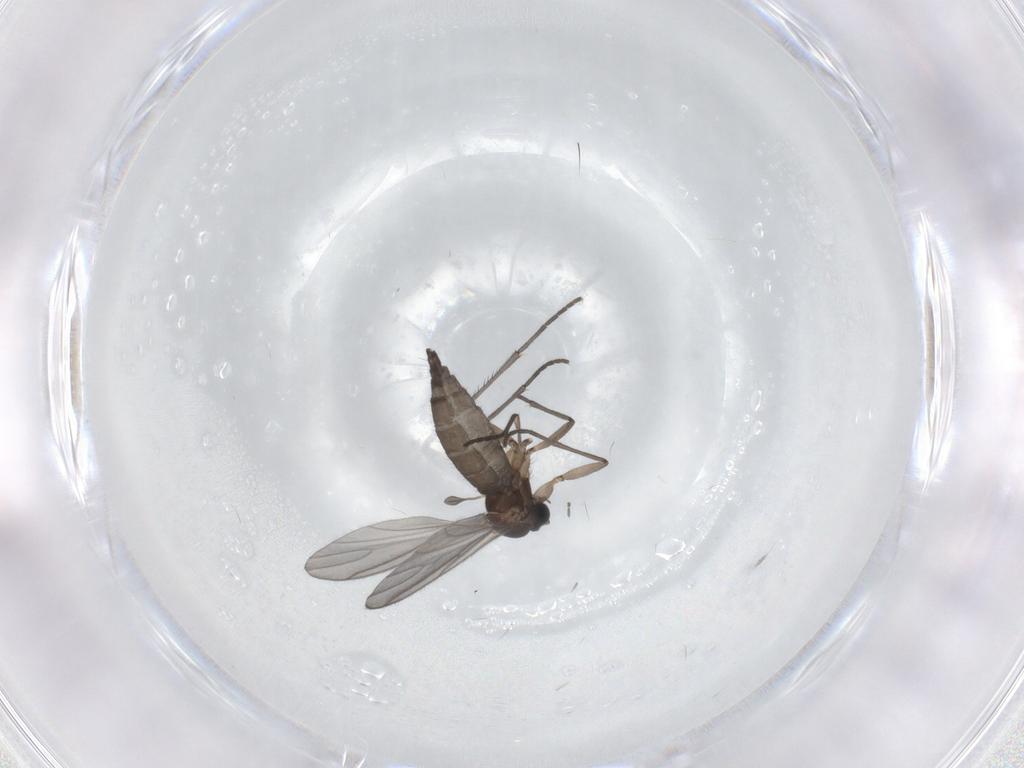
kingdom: Animalia
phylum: Arthropoda
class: Insecta
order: Diptera
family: Sciaridae
